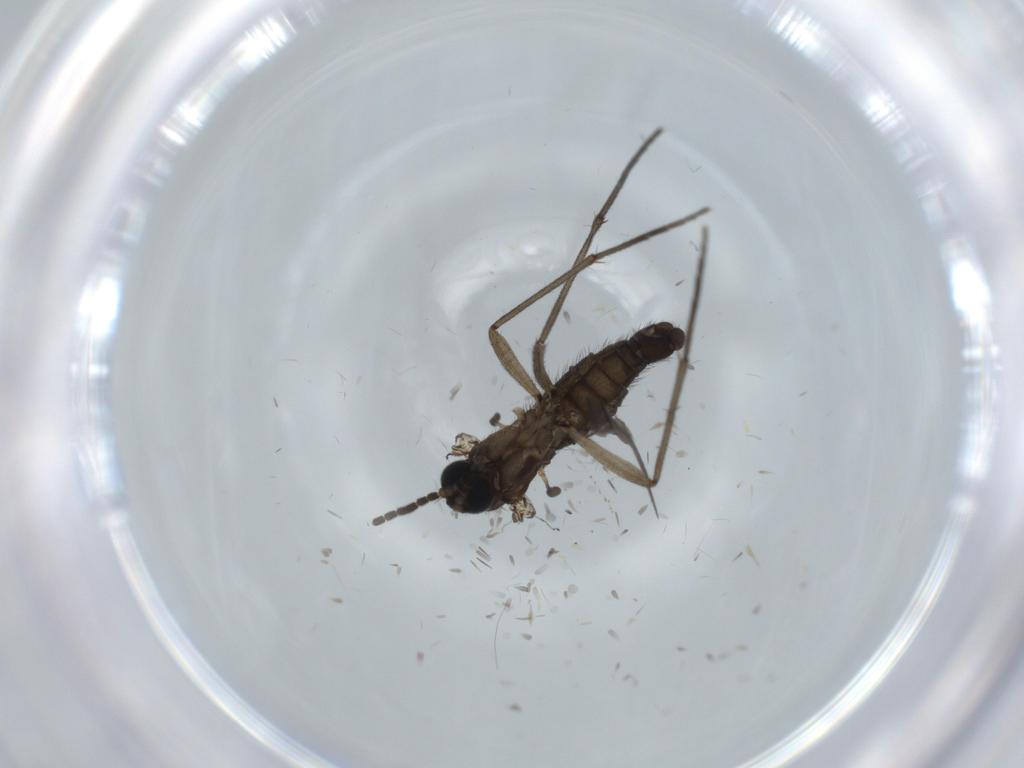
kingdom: Animalia
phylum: Arthropoda
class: Insecta
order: Diptera
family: Sciaridae
